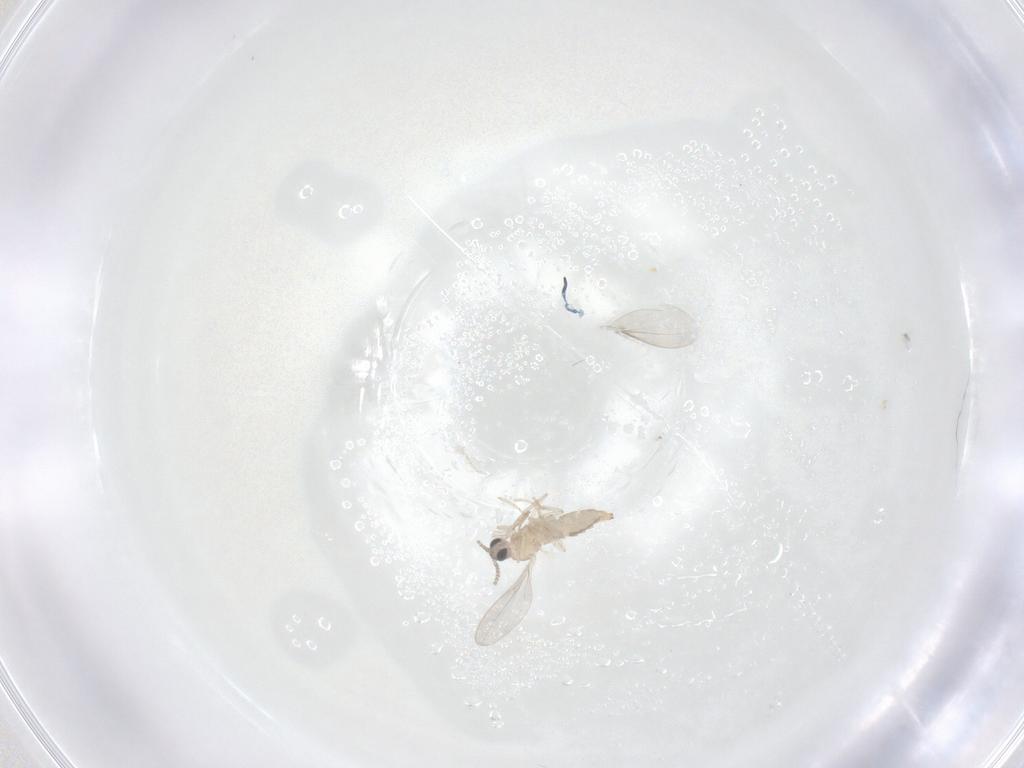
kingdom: Animalia
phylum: Arthropoda
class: Insecta
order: Diptera
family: Cecidomyiidae
